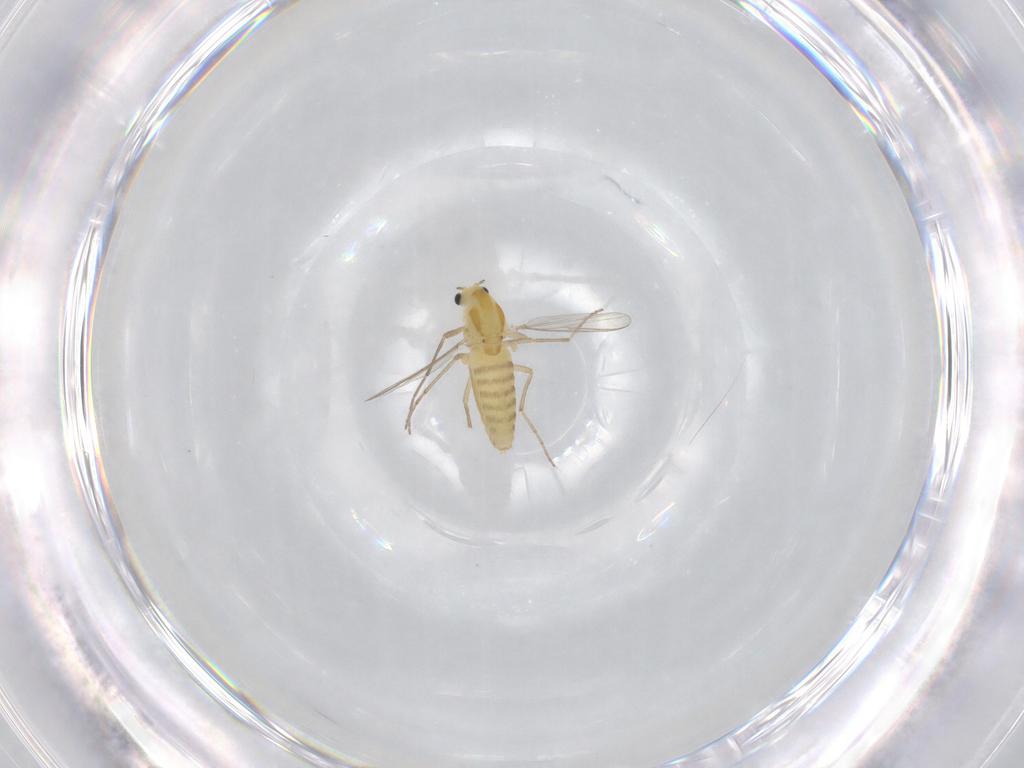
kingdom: Animalia
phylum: Arthropoda
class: Insecta
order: Diptera
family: Chironomidae
